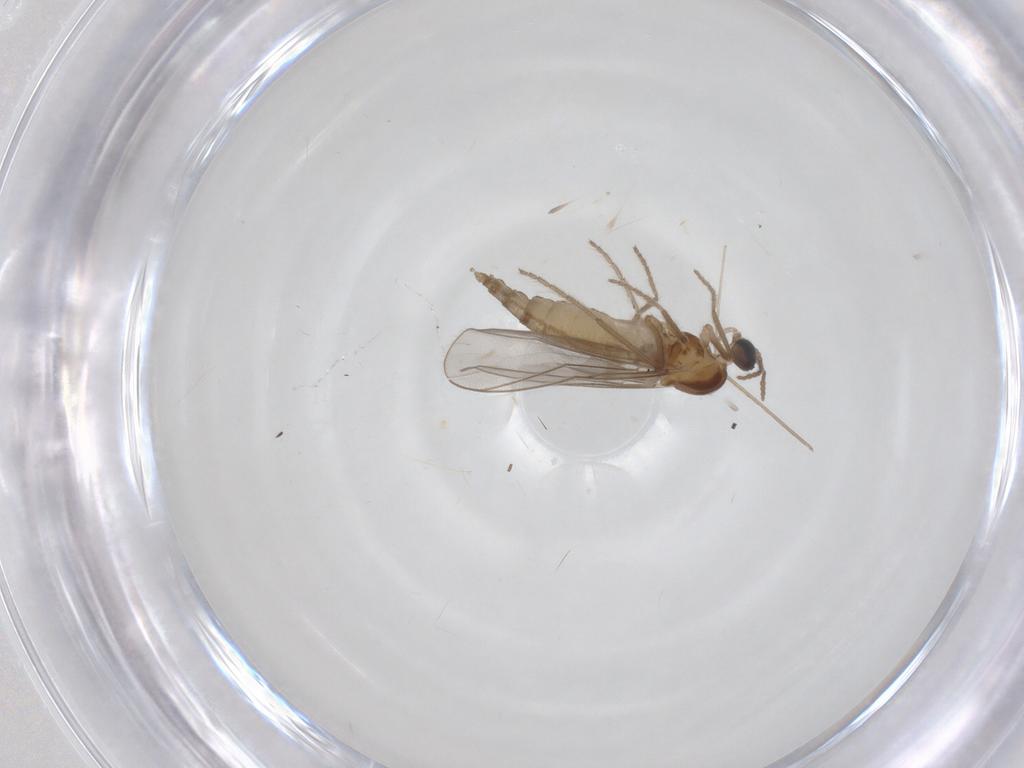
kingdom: Animalia
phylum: Arthropoda
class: Insecta
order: Diptera
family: Cecidomyiidae
